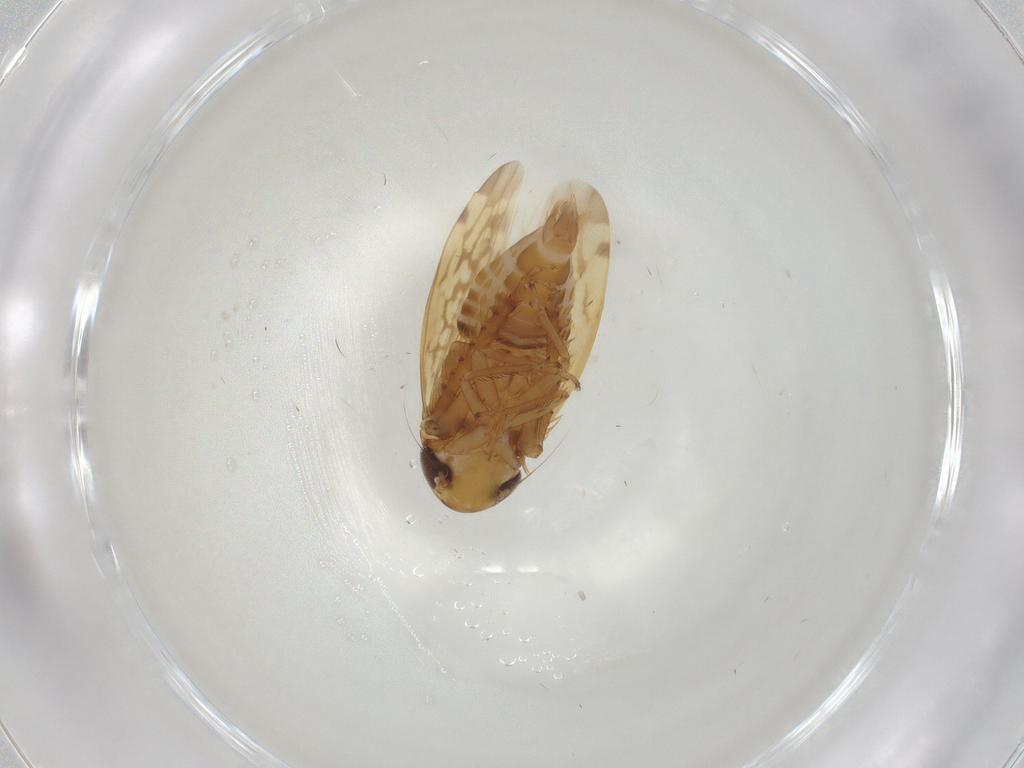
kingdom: Animalia
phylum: Arthropoda
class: Insecta
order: Hemiptera
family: Cicadellidae
